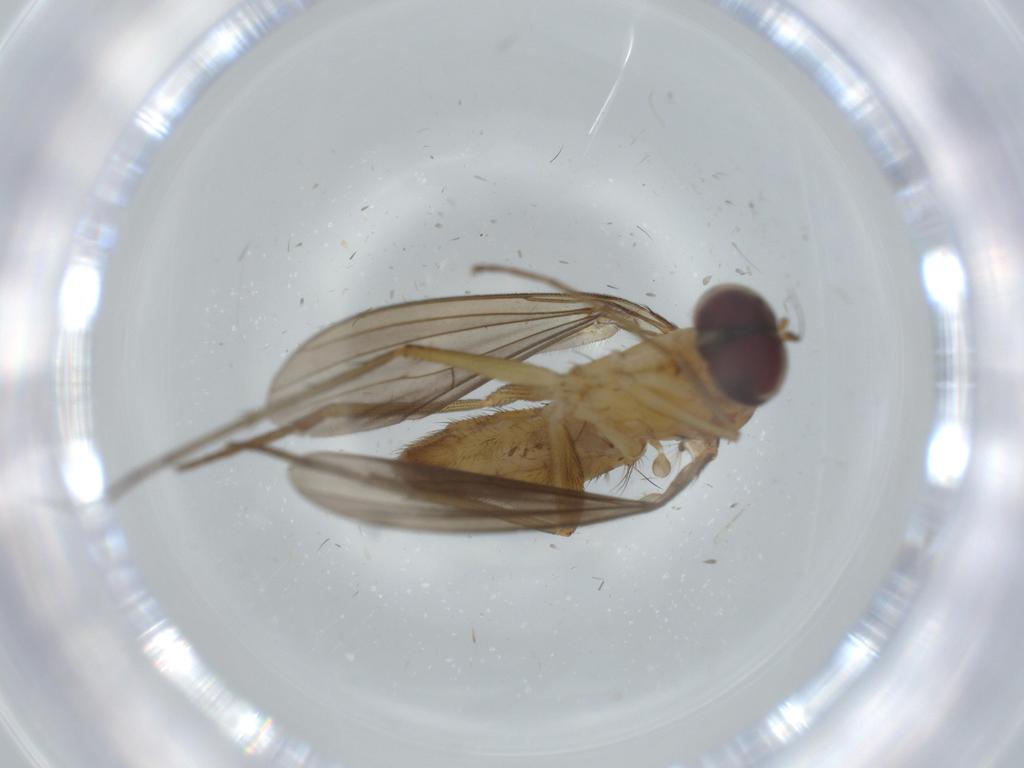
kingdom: Animalia
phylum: Arthropoda
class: Insecta
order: Diptera
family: Dolichopodidae
